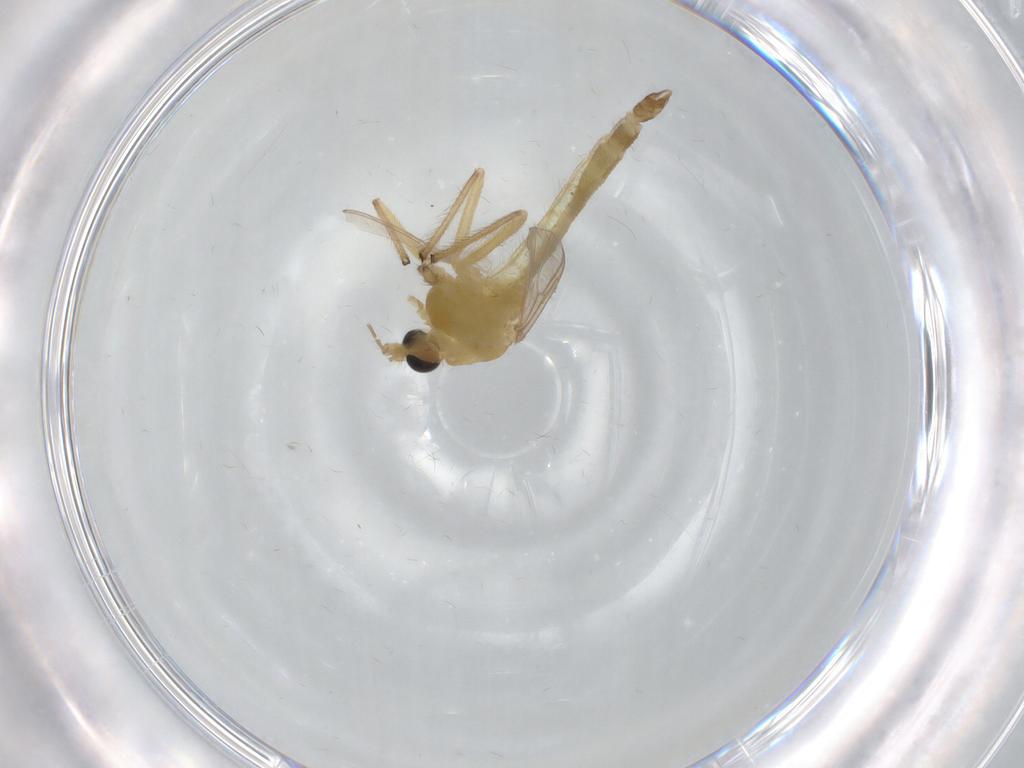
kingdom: Animalia
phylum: Arthropoda
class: Insecta
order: Diptera
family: Chironomidae
